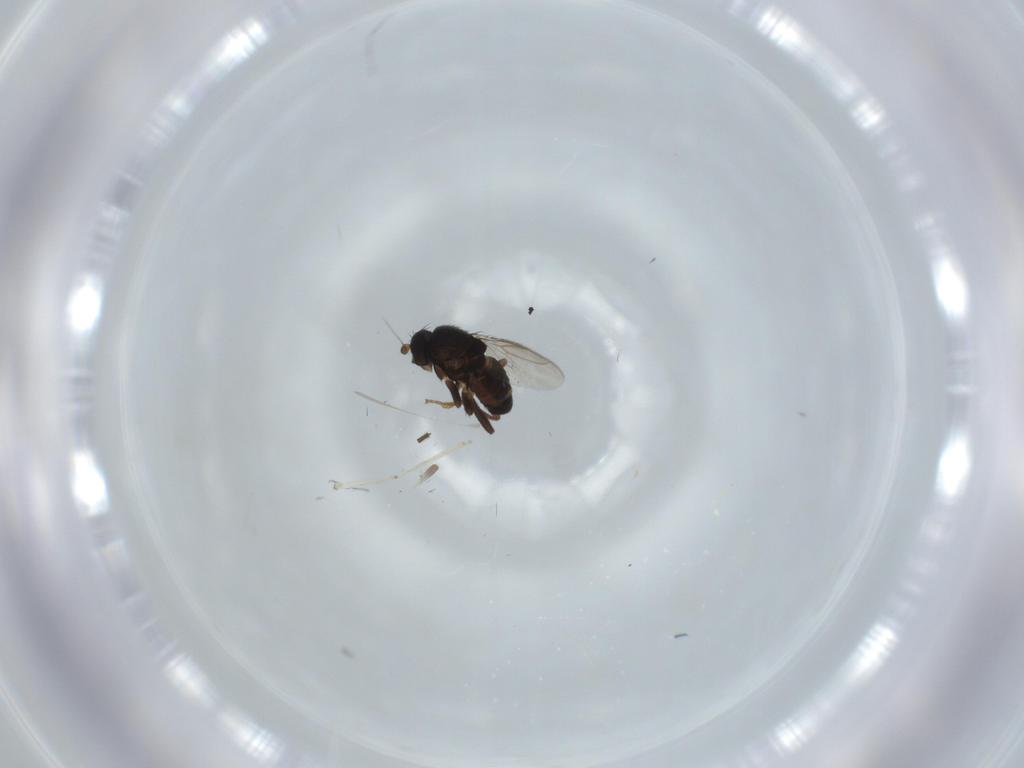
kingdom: Animalia
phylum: Arthropoda
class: Insecta
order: Diptera
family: Sphaeroceridae
